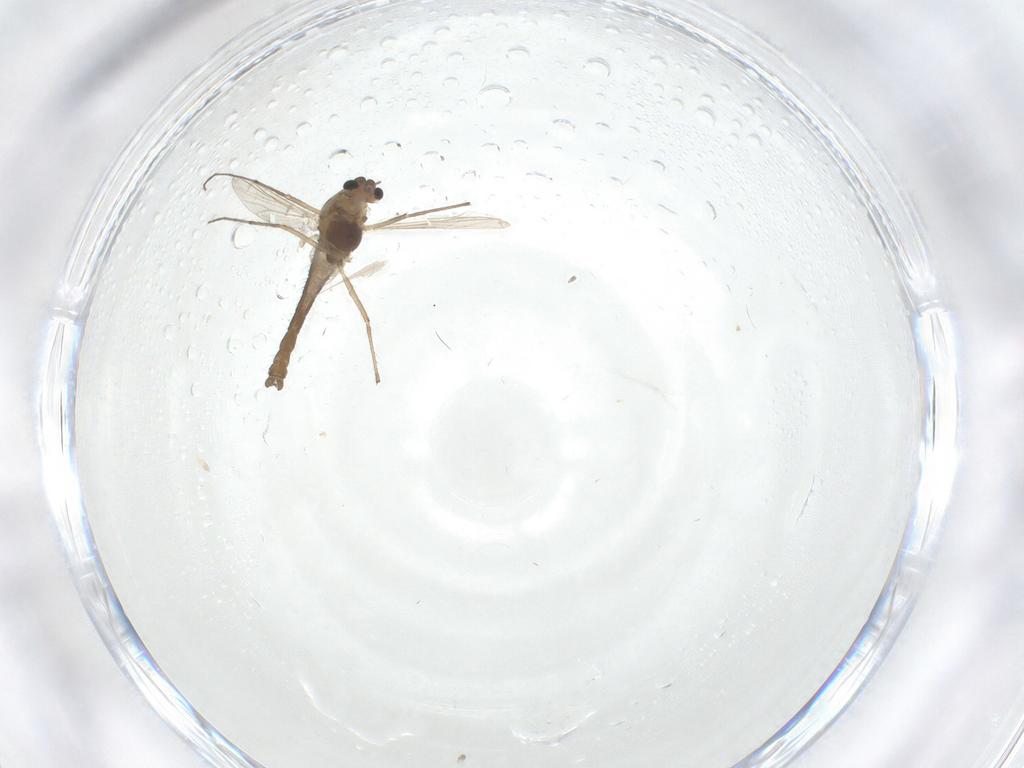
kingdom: Animalia
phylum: Arthropoda
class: Insecta
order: Diptera
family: Chironomidae
